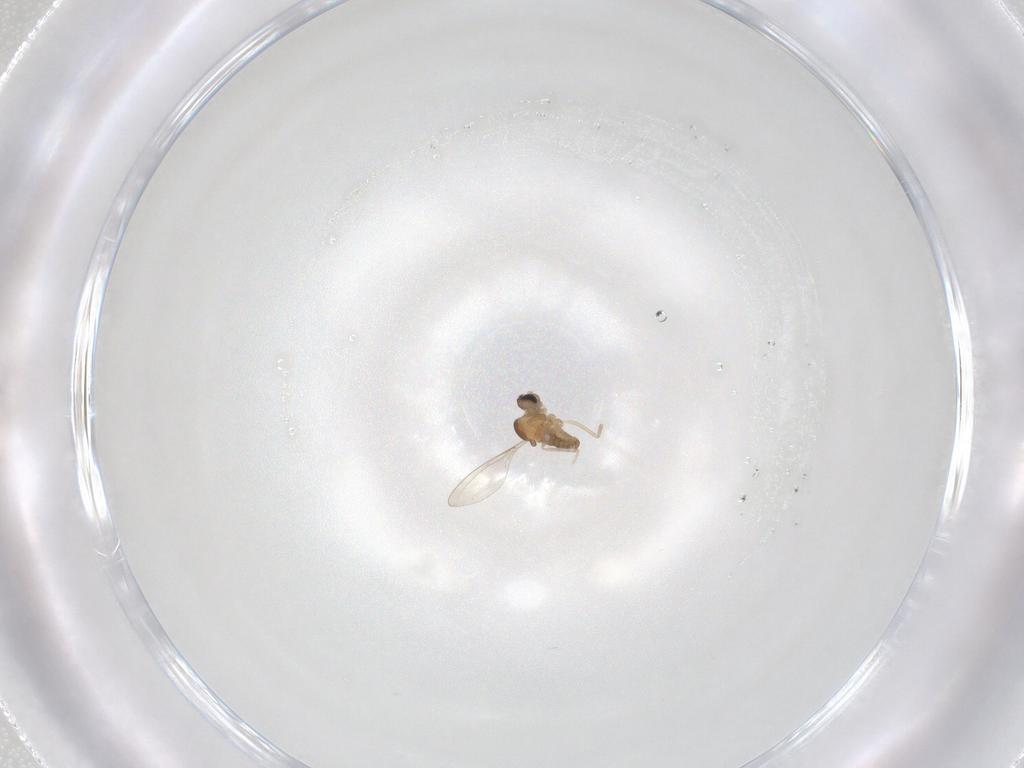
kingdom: Animalia
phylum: Arthropoda
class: Insecta
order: Diptera
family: Cecidomyiidae
